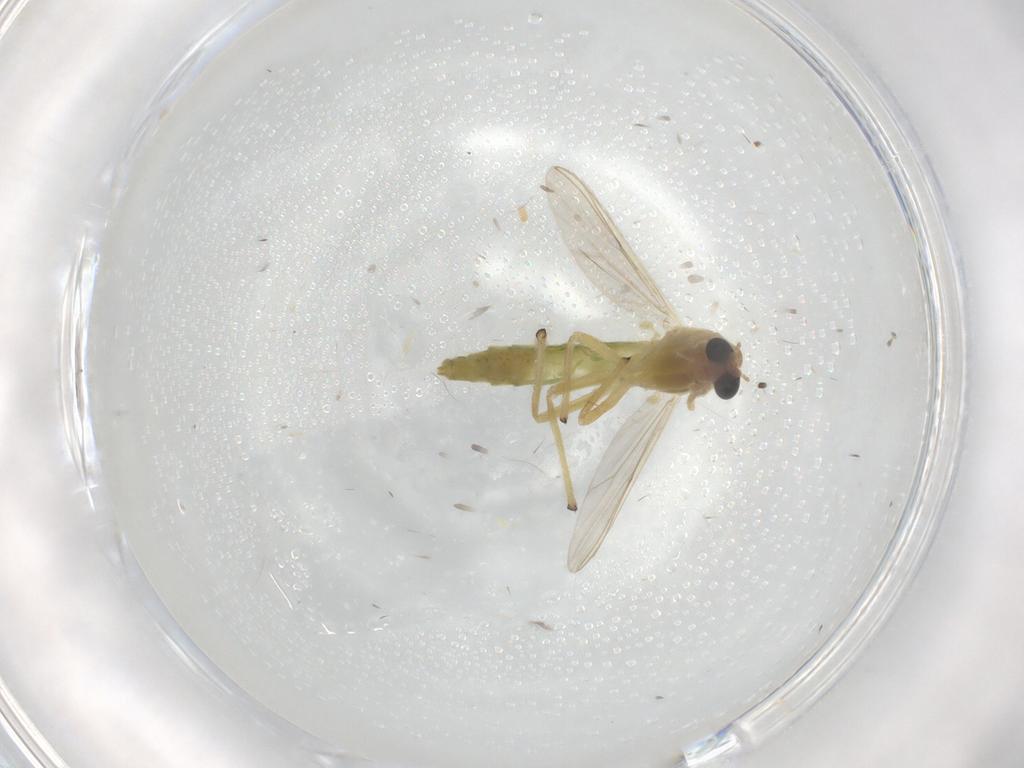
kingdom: Animalia
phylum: Arthropoda
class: Insecta
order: Diptera
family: Chironomidae
